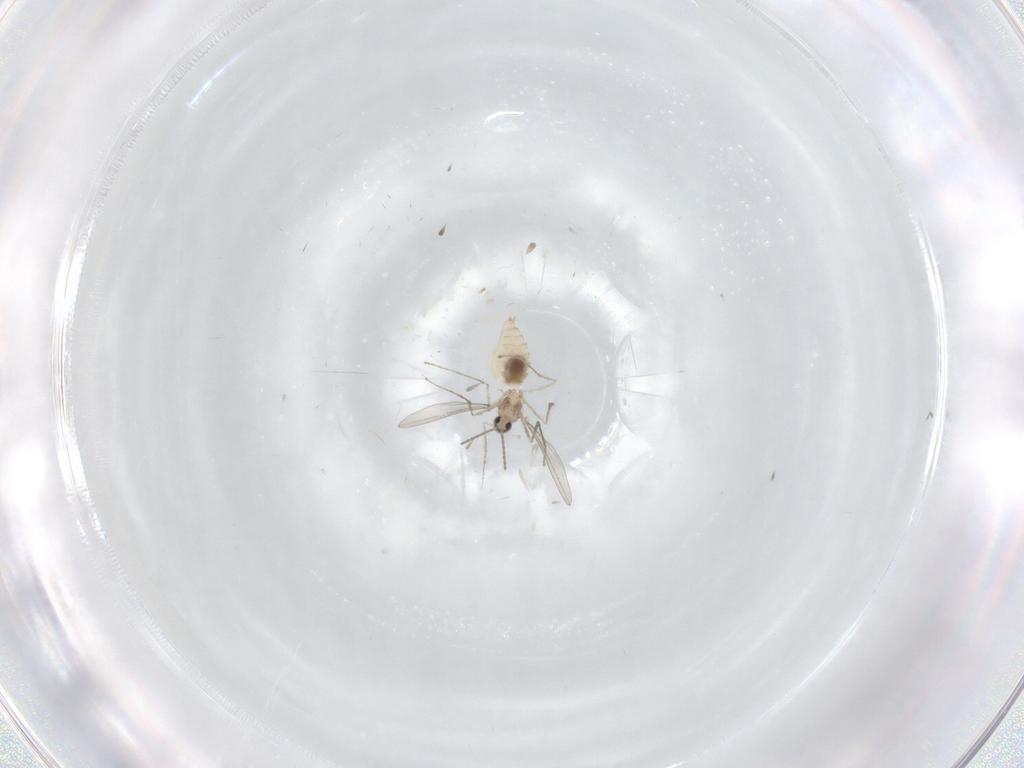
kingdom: Animalia
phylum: Arthropoda
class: Insecta
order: Diptera
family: Cecidomyiidae
